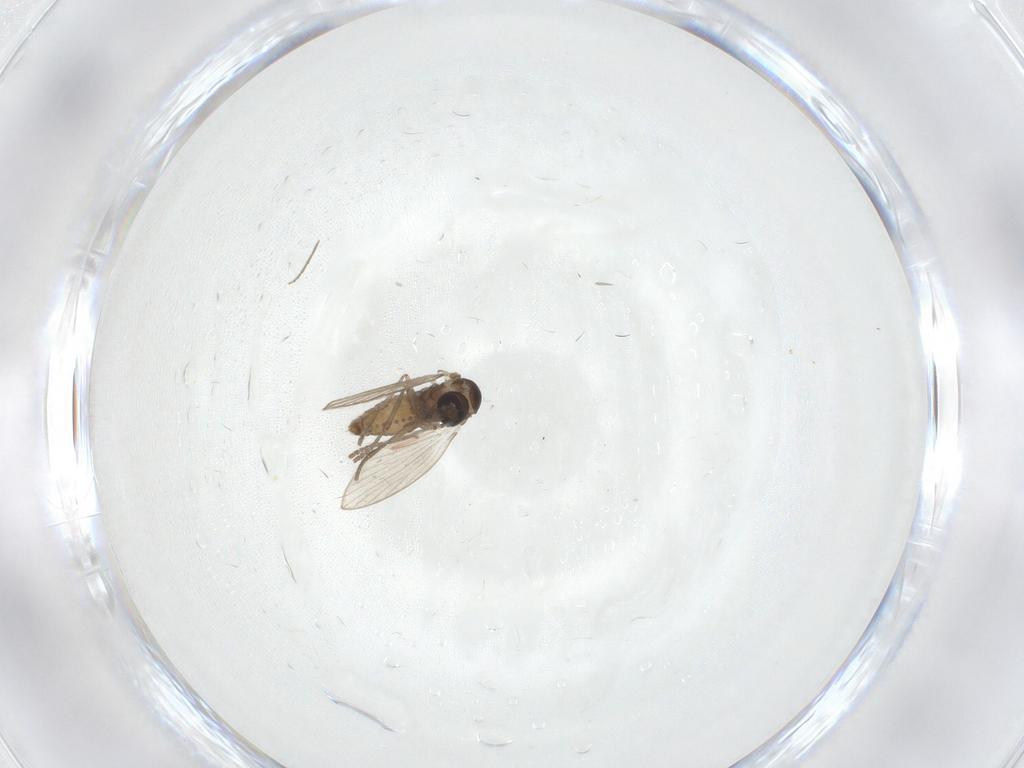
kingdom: Animalia
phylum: Arthropoda
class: Insecta
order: Diptera
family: Psychodidae
